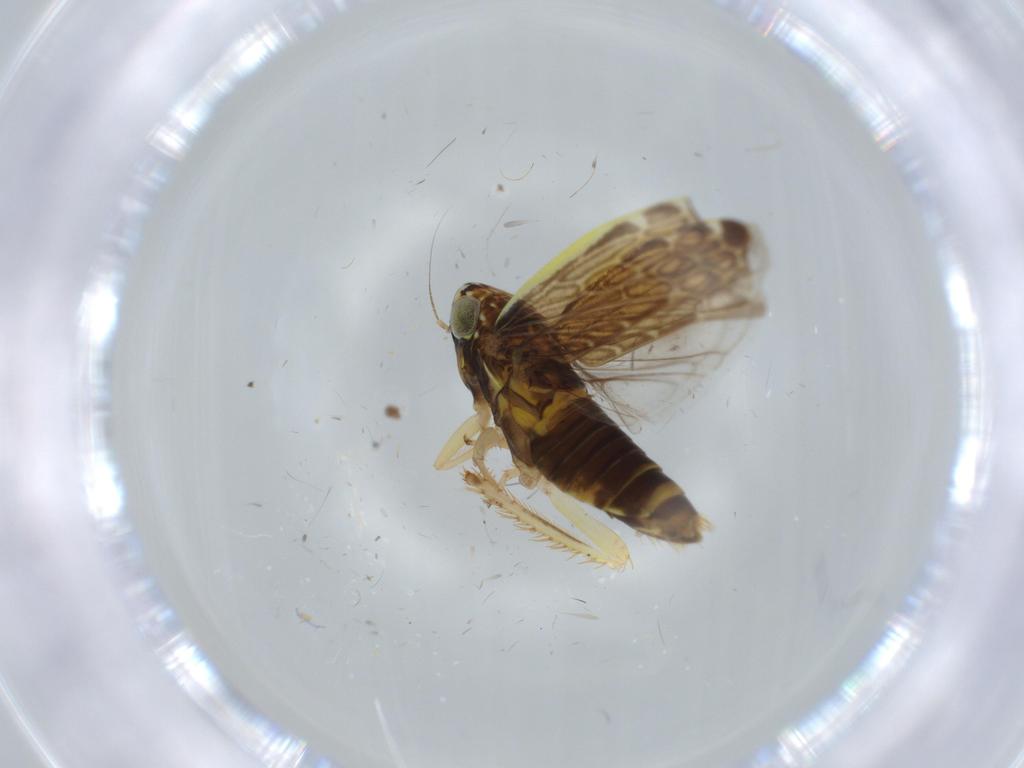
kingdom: Animalia
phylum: Arthropoda
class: Insecta
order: Hemiptera
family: Cicadellidae
